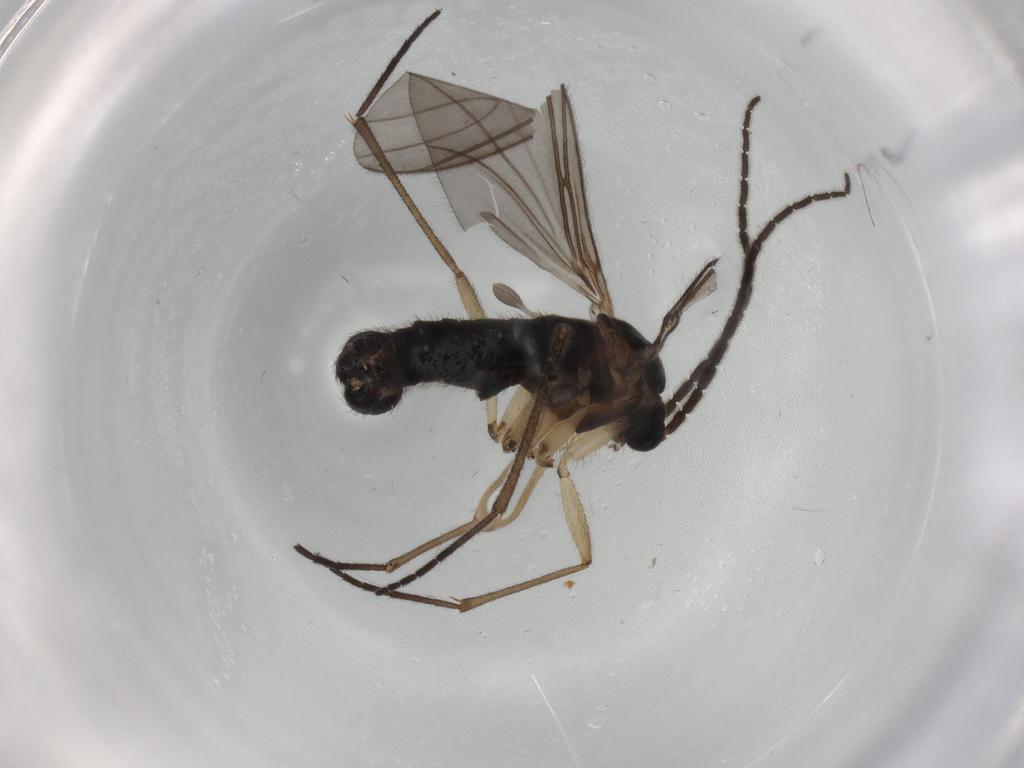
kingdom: Animalia
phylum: Arthropoda
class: Insecta
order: Diptera
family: Sciaridae
